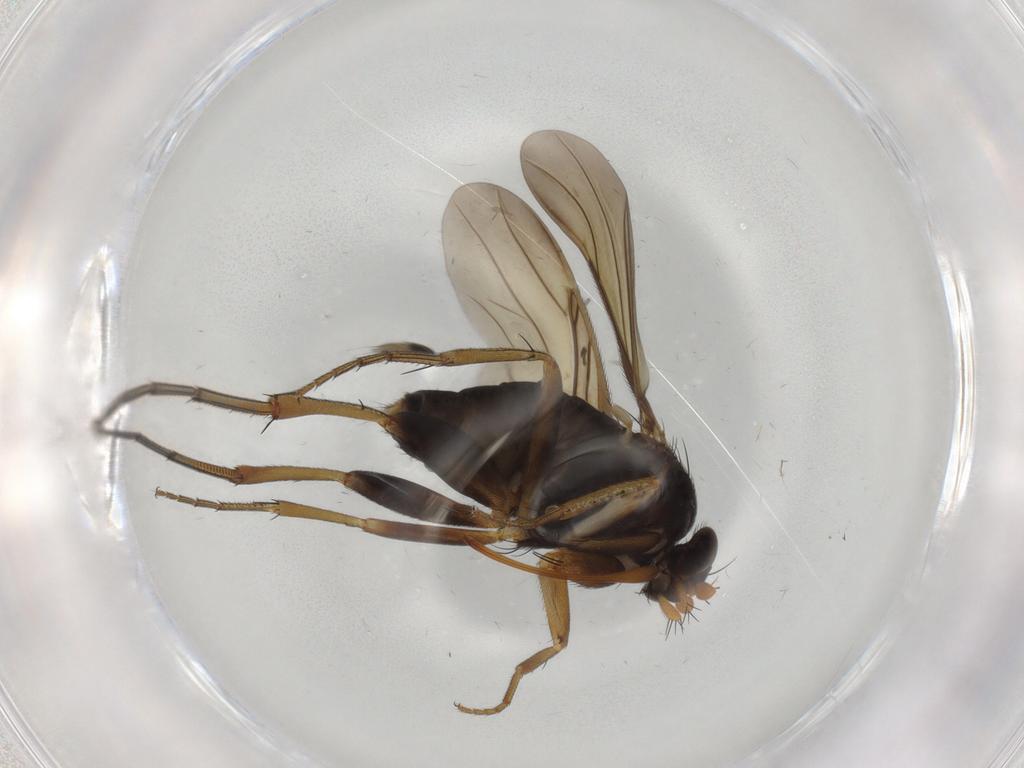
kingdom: Animalia
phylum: Arthropoda
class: Insecta
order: Diptera
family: Phoridae
